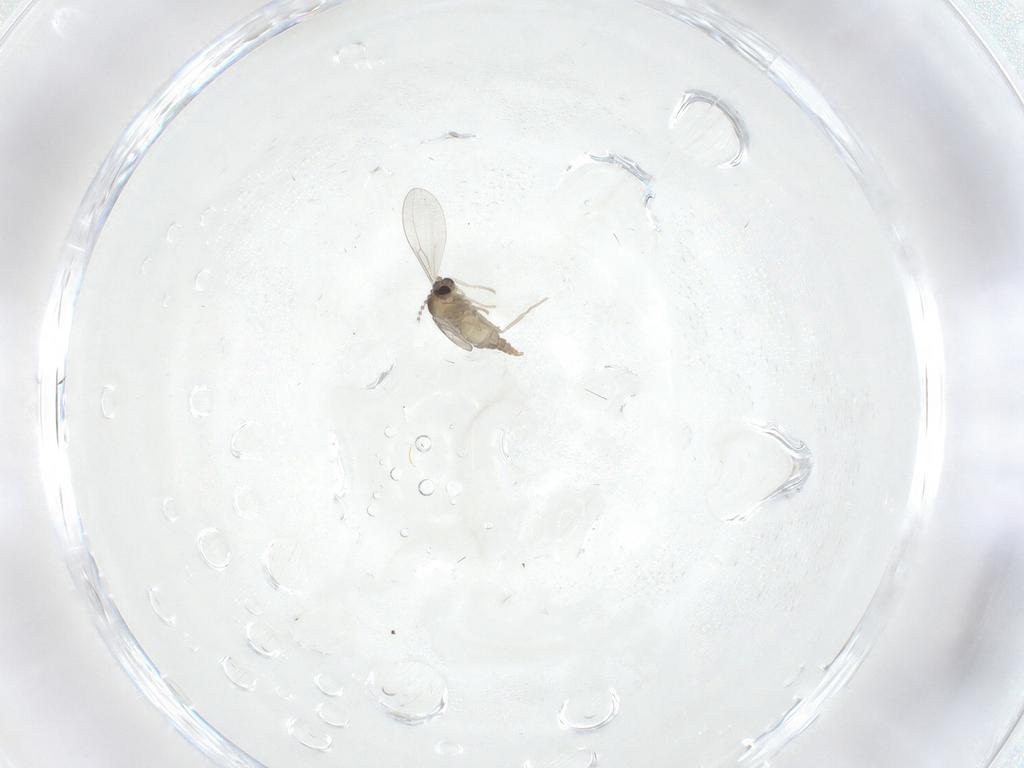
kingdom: Animalia
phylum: Arthropoda
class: Insecta
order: Diptera
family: Cecidomyiidae
